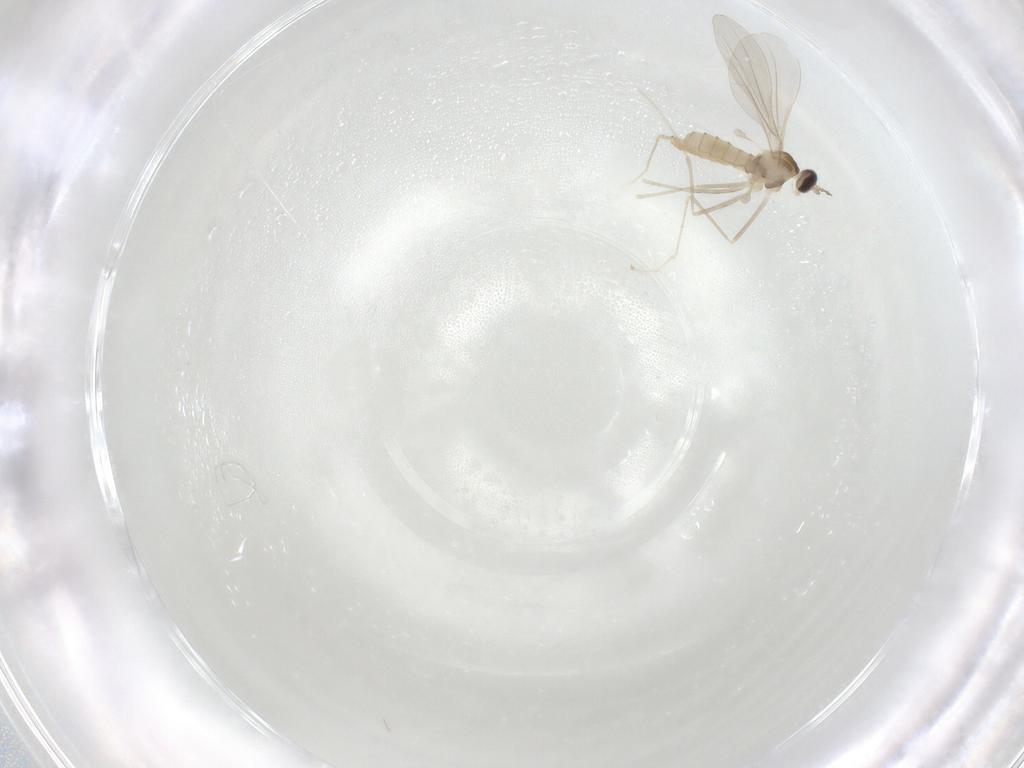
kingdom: Animalia
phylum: Arthropoda
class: Insecta
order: Diptera
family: Cecidomyiidae
